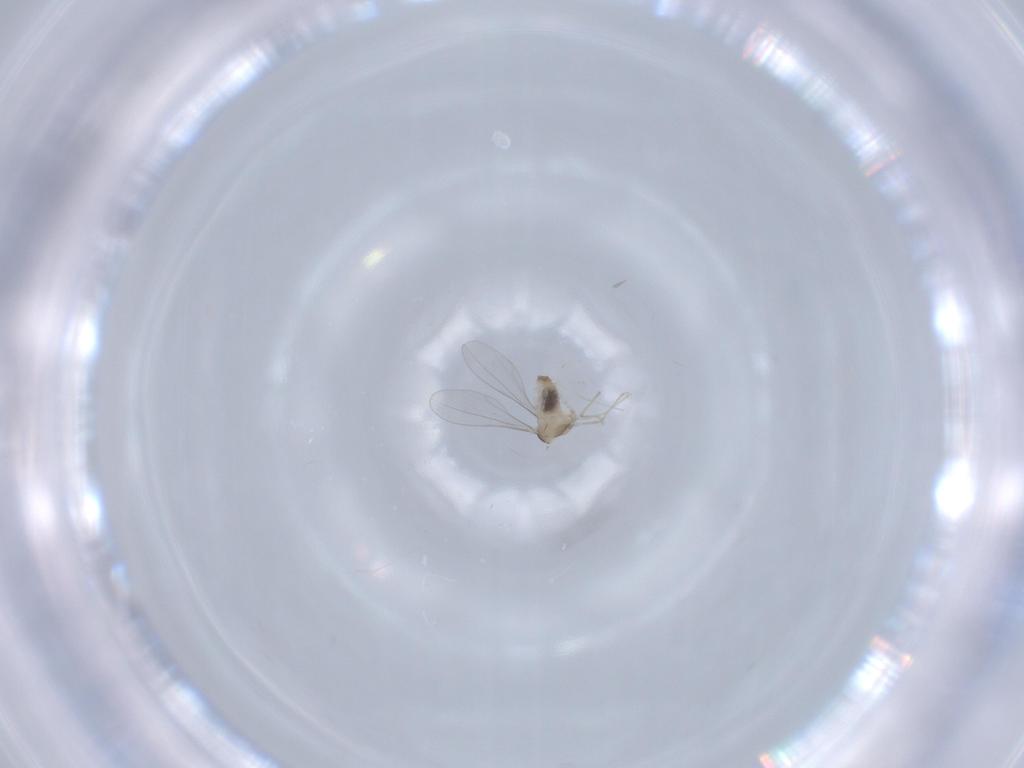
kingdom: Animalia
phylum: Arthropoda
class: Insecta
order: Diptera
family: Cecidomyiidae
